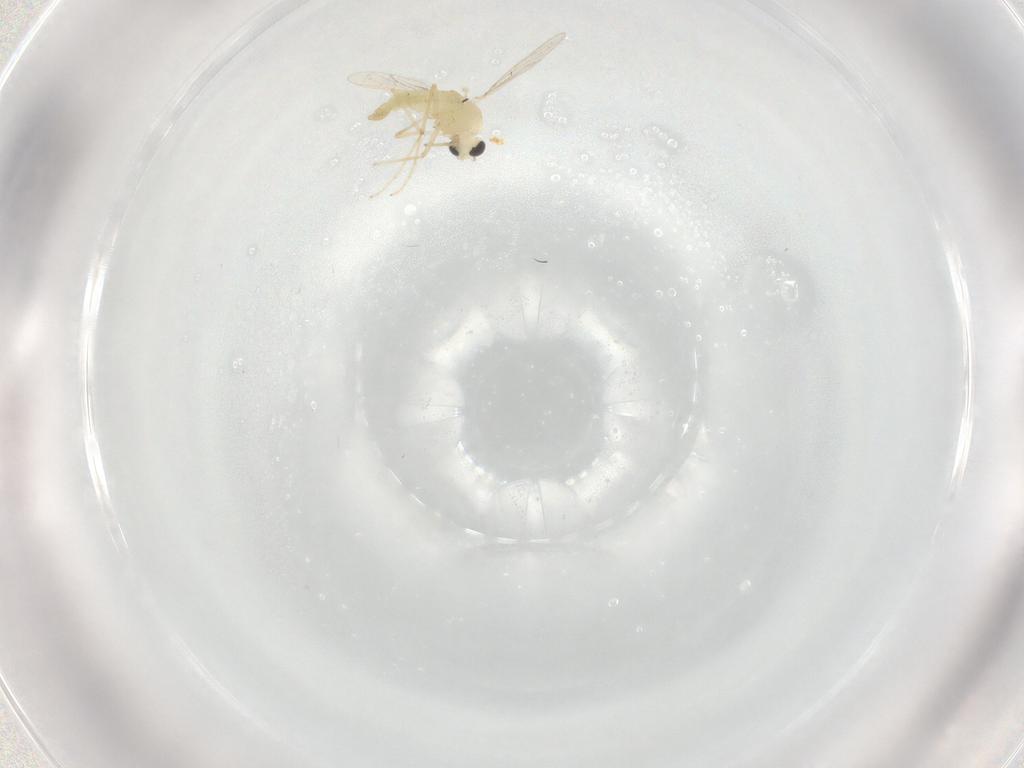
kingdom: Animalia
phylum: Arthropoda
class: Insecta
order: Diptera
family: Chironomidae
